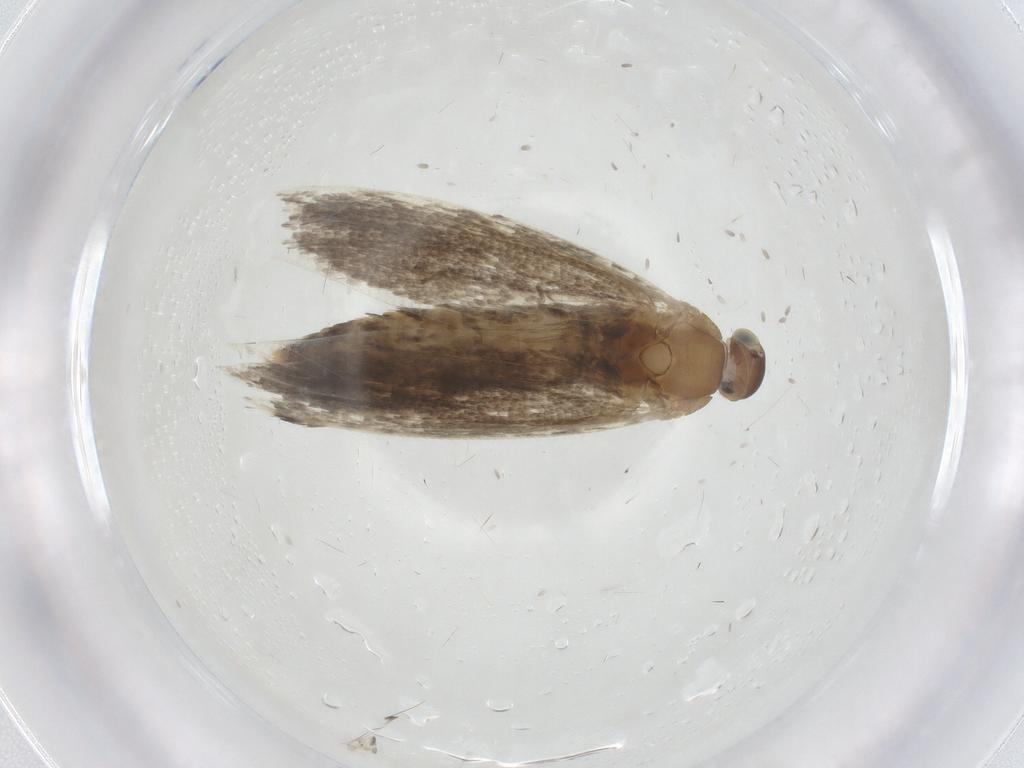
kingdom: Animalia
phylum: Arthropoda
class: Insecta
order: Lepidoptera
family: Glyphipterigidae
